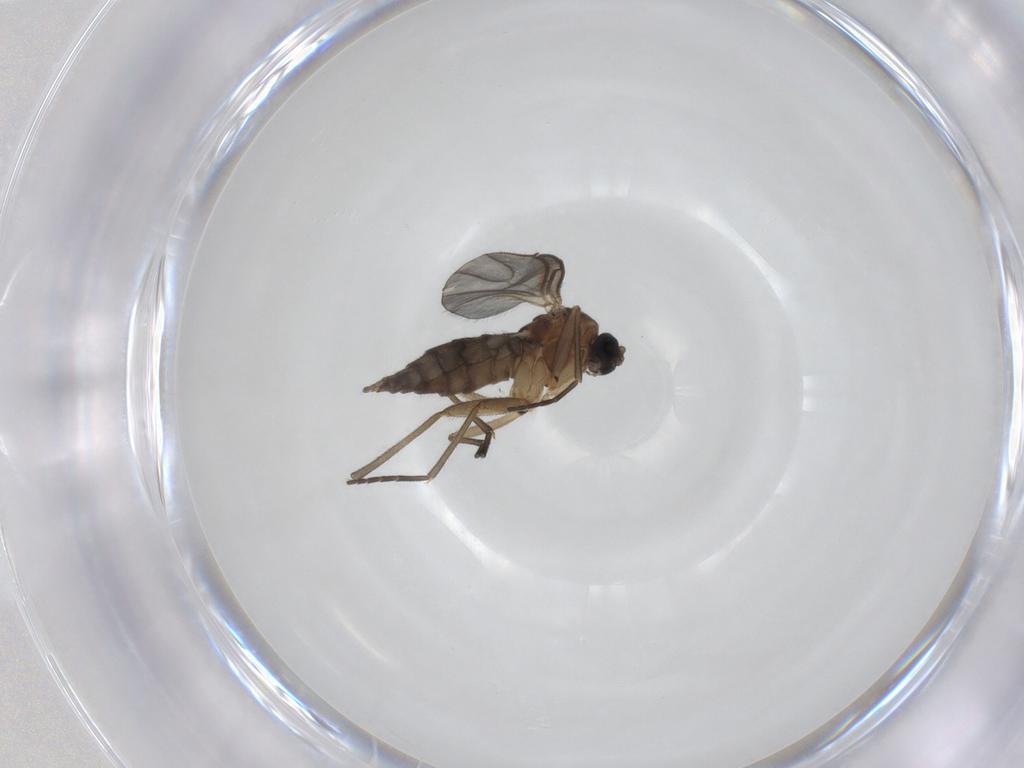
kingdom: Animalia
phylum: Arthropoda
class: Insecta
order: Diptera
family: Sciaridae
